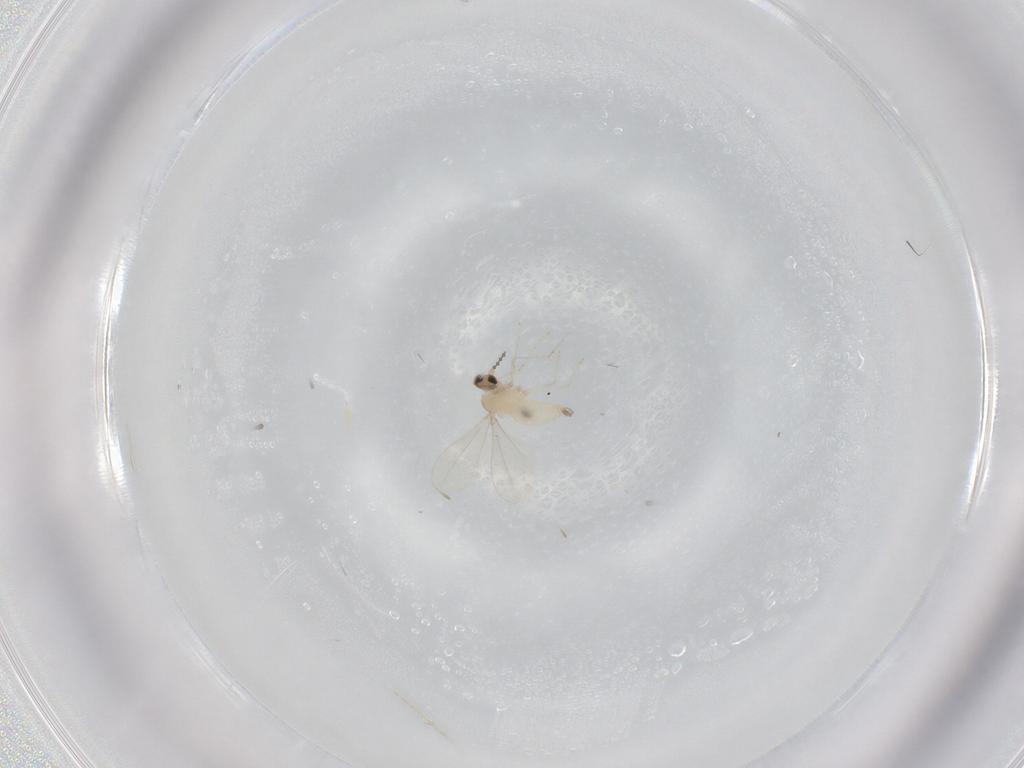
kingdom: Animalia
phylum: Arthropoda
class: Insecta
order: Diptera
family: Cecidomyiidae
